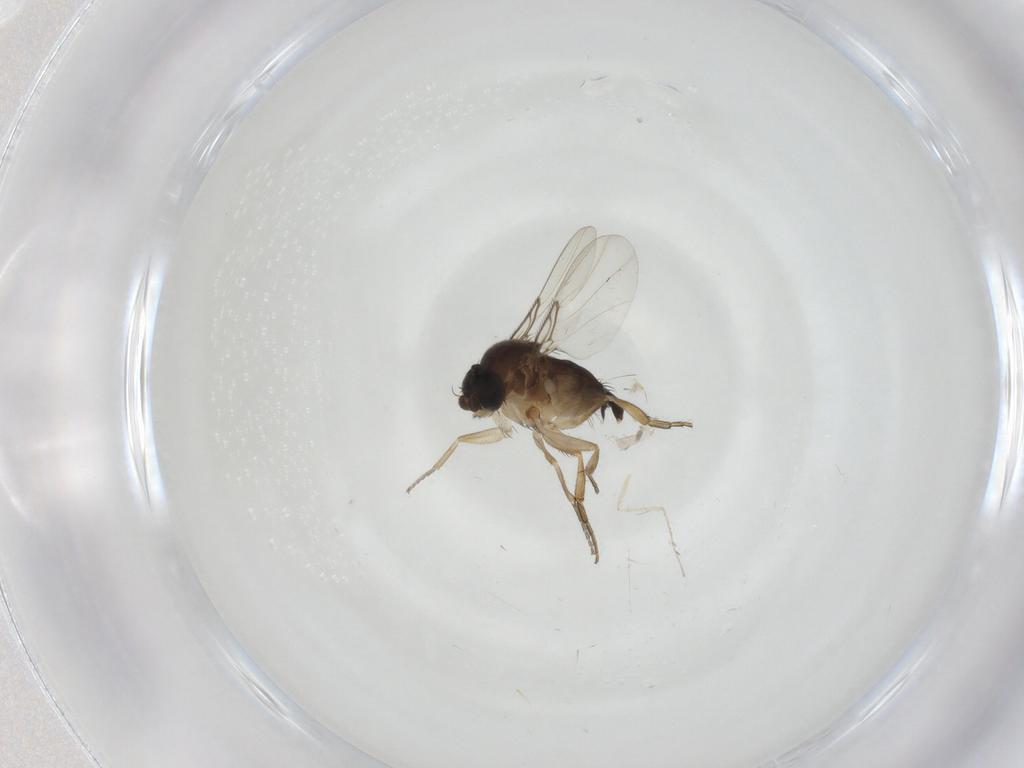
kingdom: Animalia
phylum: Arthropoda
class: Insecta
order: Diptera
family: Phoridae
